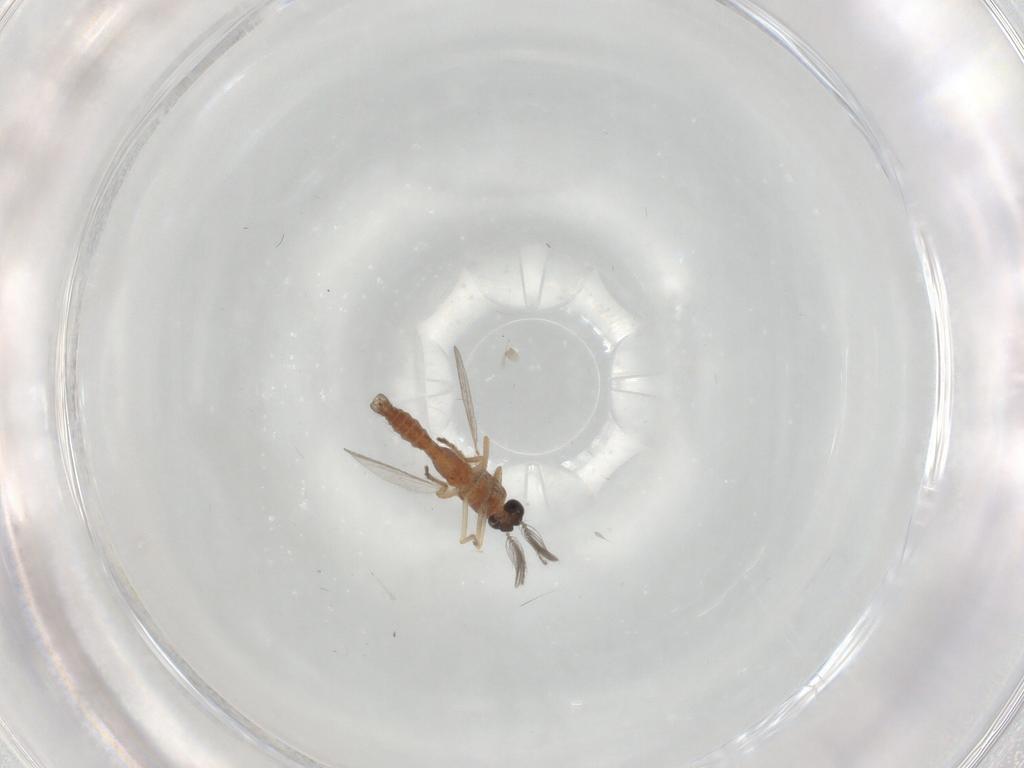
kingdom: Animalia
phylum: Arthropoda
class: Insecta
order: Diptera
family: Ceratopogonidae
